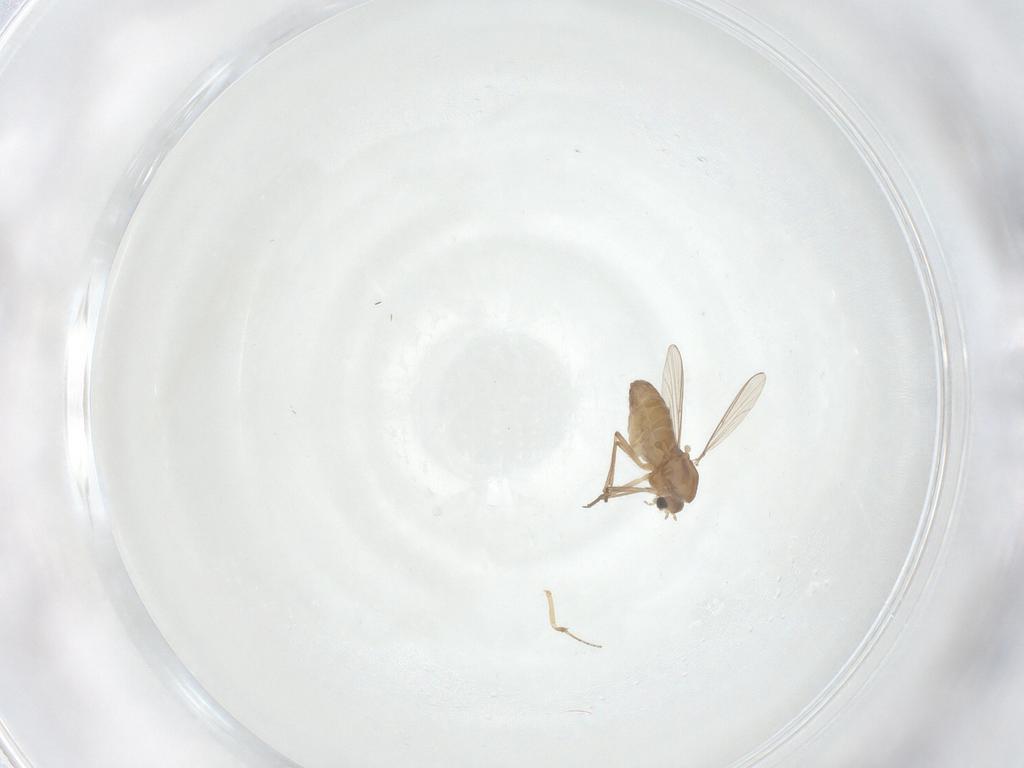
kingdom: Animalia
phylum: Arthropoda
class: Insecta
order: Diptera
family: Chironomidae
